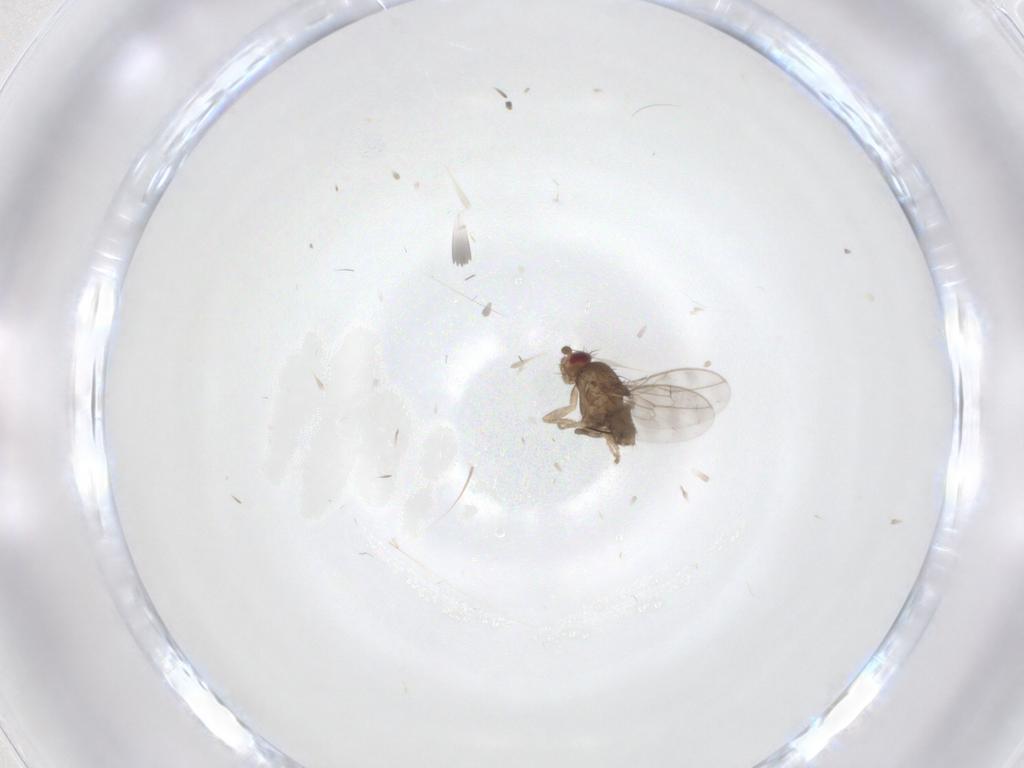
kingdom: Animalia
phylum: Arthropoda
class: Insecta
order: Diptera
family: Sphaeroceridae
